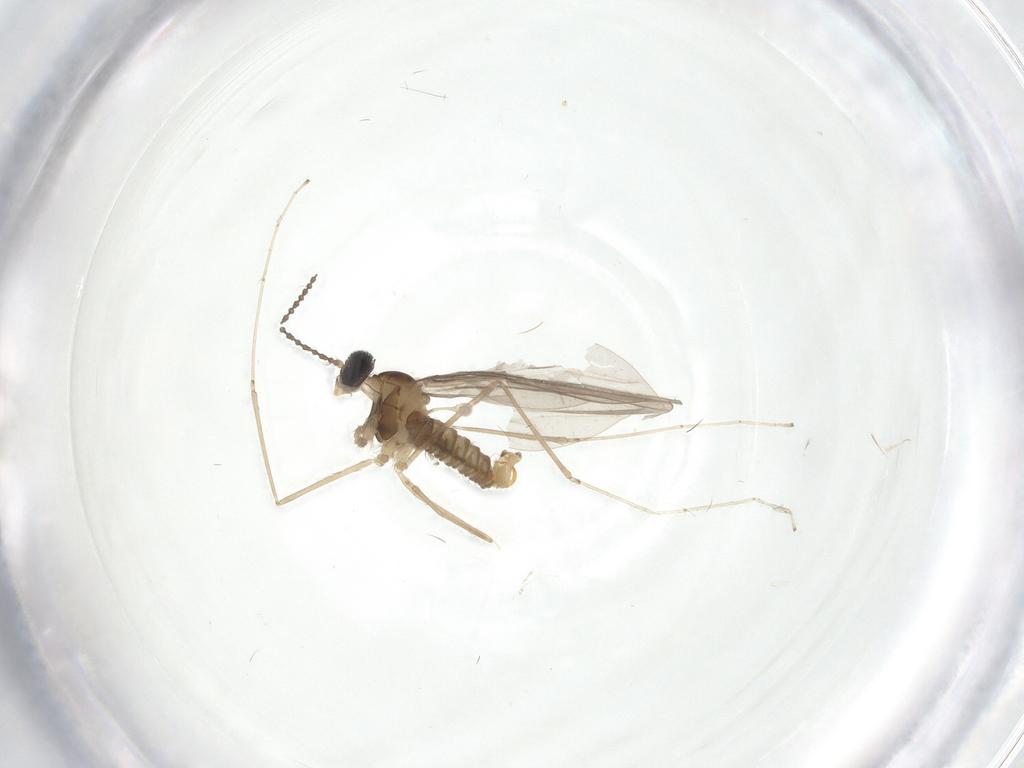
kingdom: Animalia
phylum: Arthropoda
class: Insecta
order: Diptera
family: Cecidomyiidae
